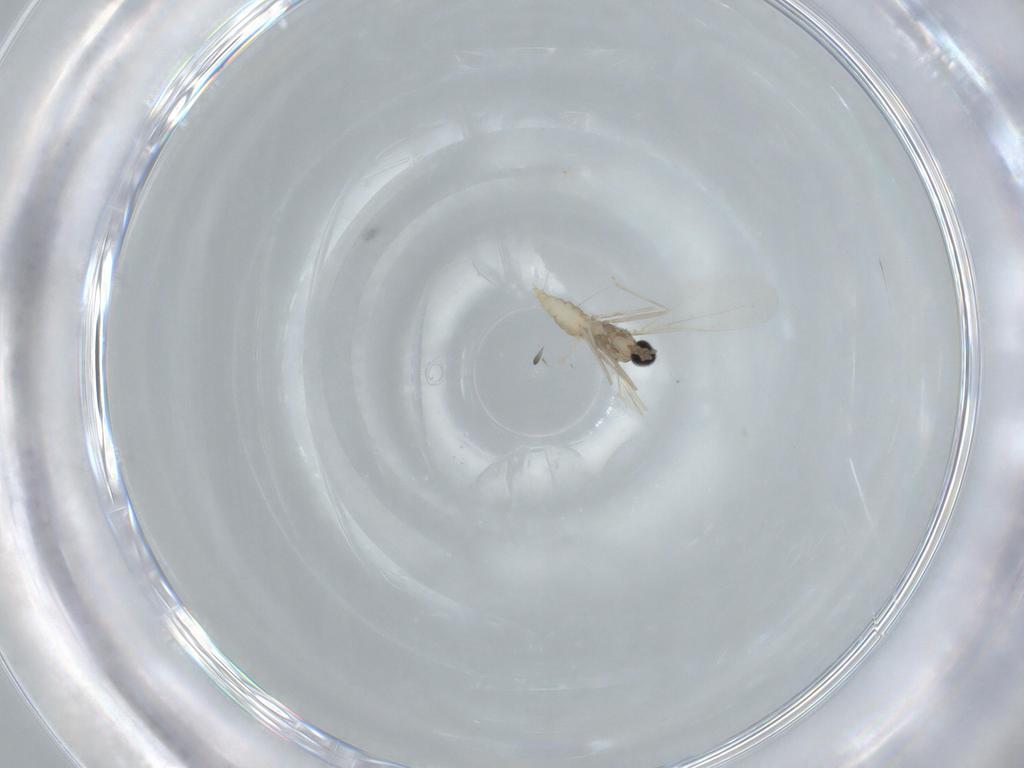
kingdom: Animalia
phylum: Arthropoda
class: Insecta
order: Diptera
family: Cecidomyiidae
